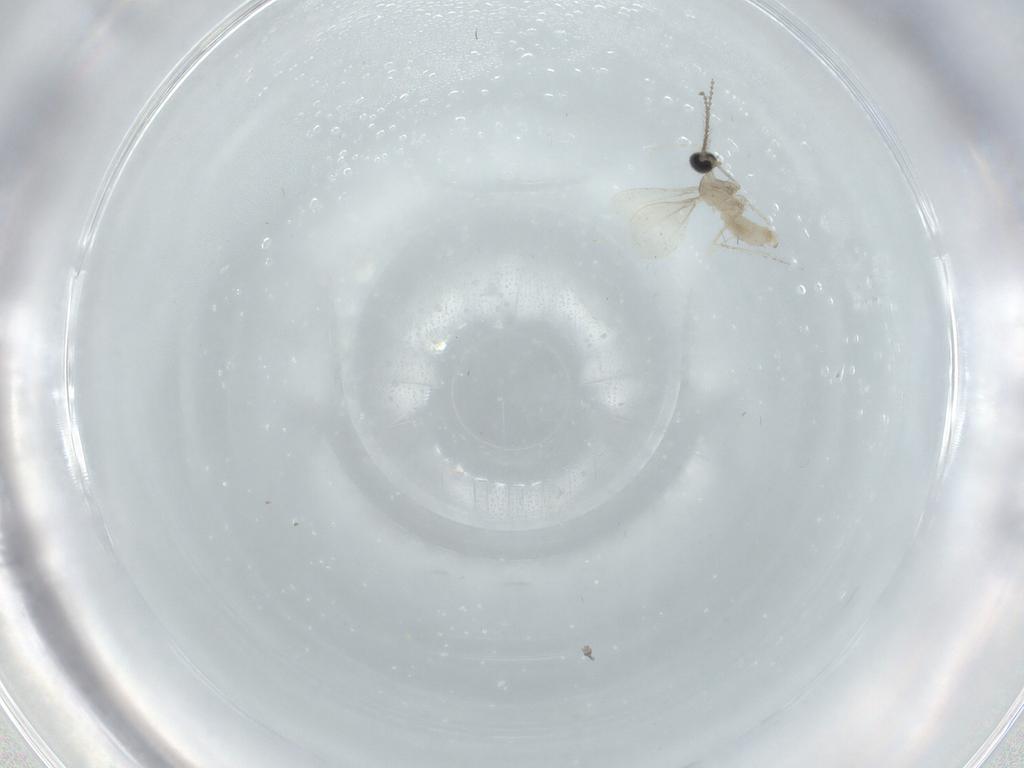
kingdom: Animalia
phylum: Arthropoda
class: Insecta
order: Diptera
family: Cecidomyiidae
